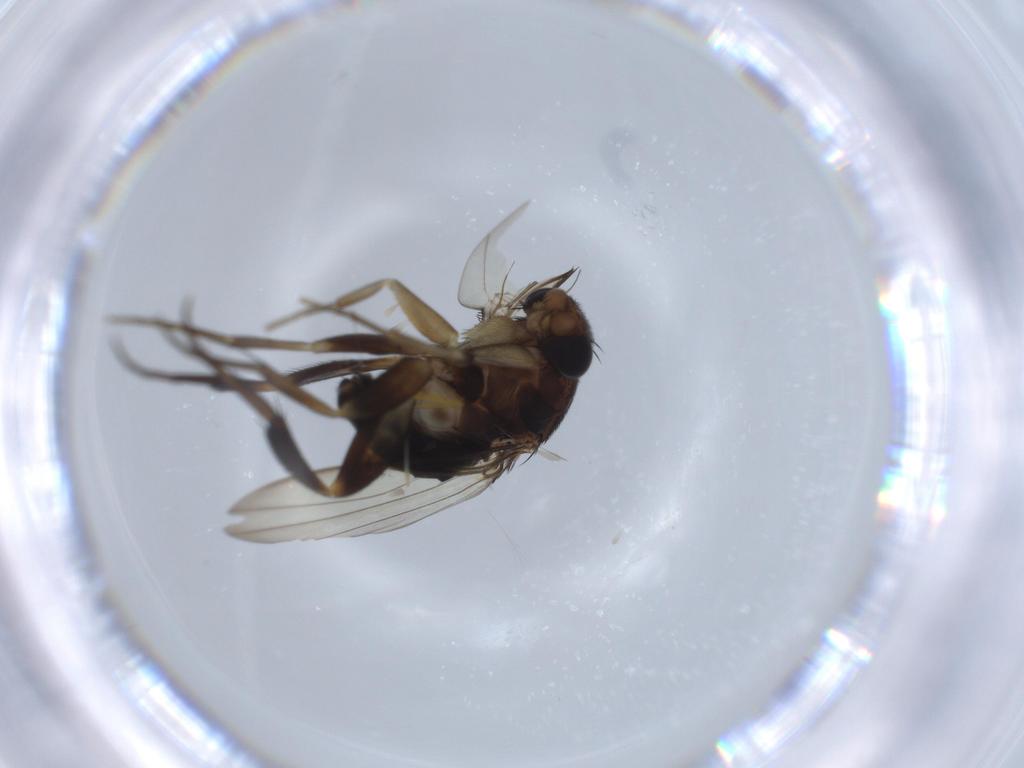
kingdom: Animalia
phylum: Arthropoda
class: Insecta
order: Diptera
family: Phoridae
